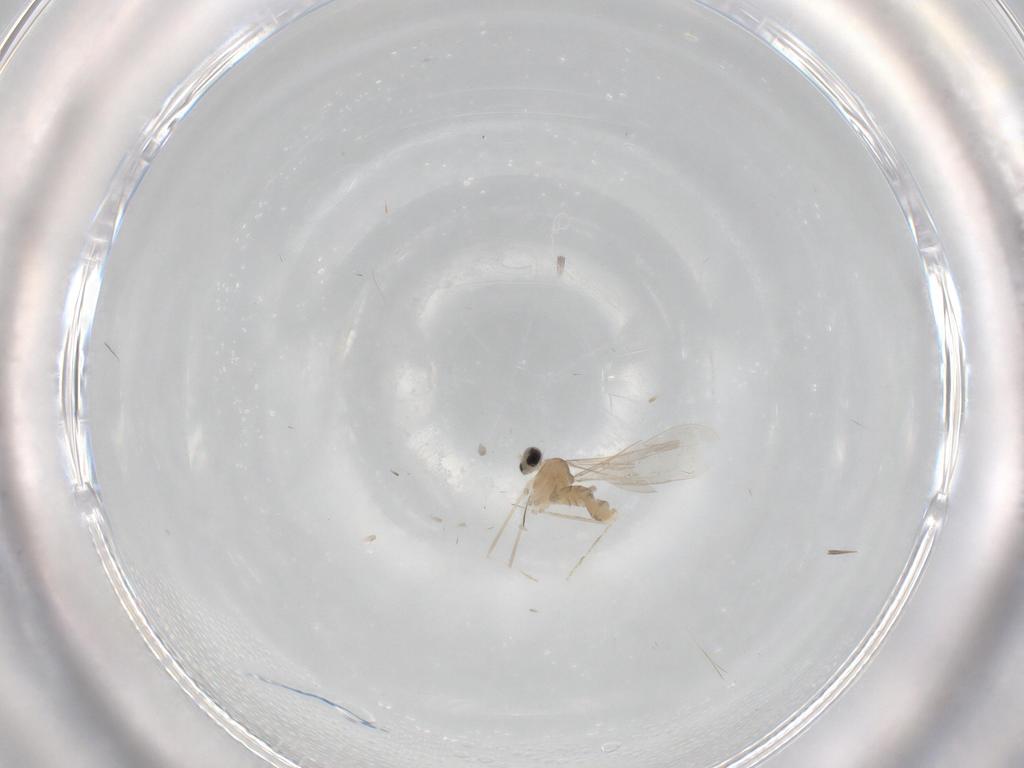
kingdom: Animalia
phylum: Arthropoda
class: Insecta
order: Diptera
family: Cecidomyiidae
